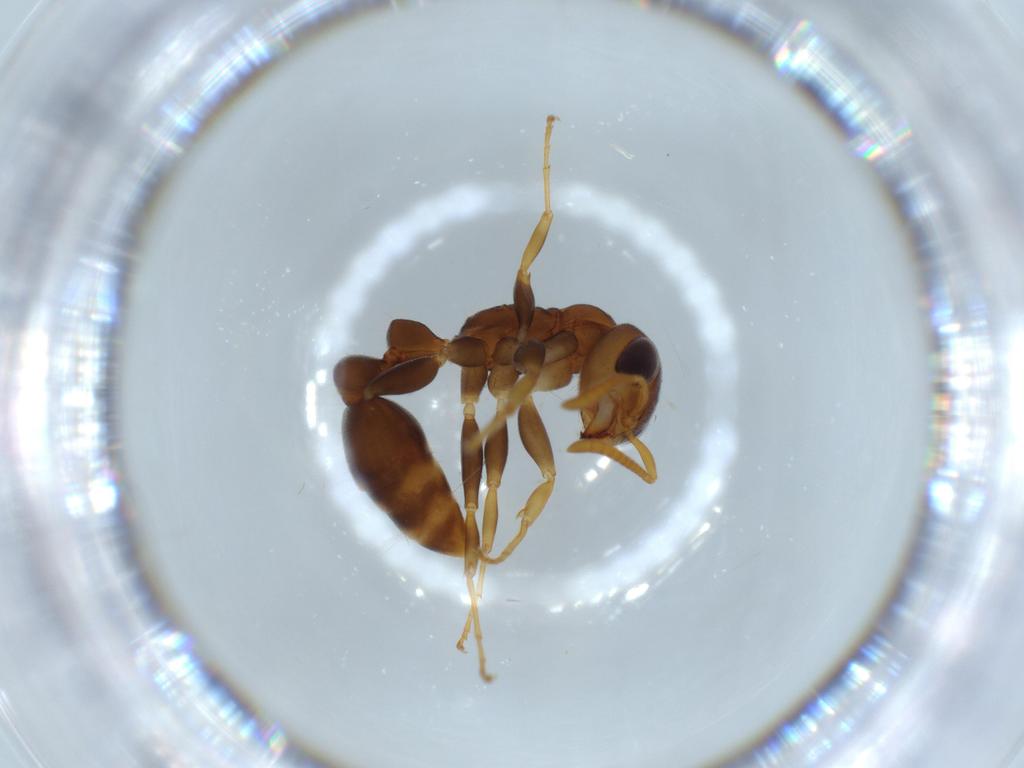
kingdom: Animalia
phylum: Arthropoda
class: Insecta
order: Hymenoptera
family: Formicidae
